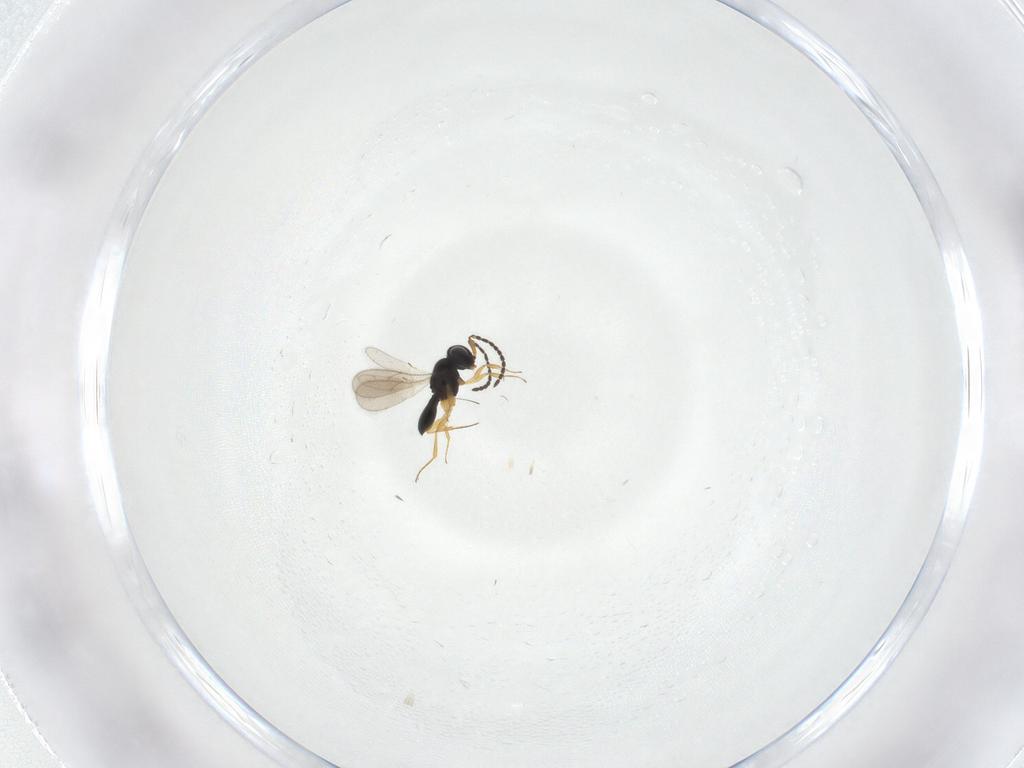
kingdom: Animalia
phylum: Arthropoda
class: Insecta
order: Hymenoptera
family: Scelionidae
